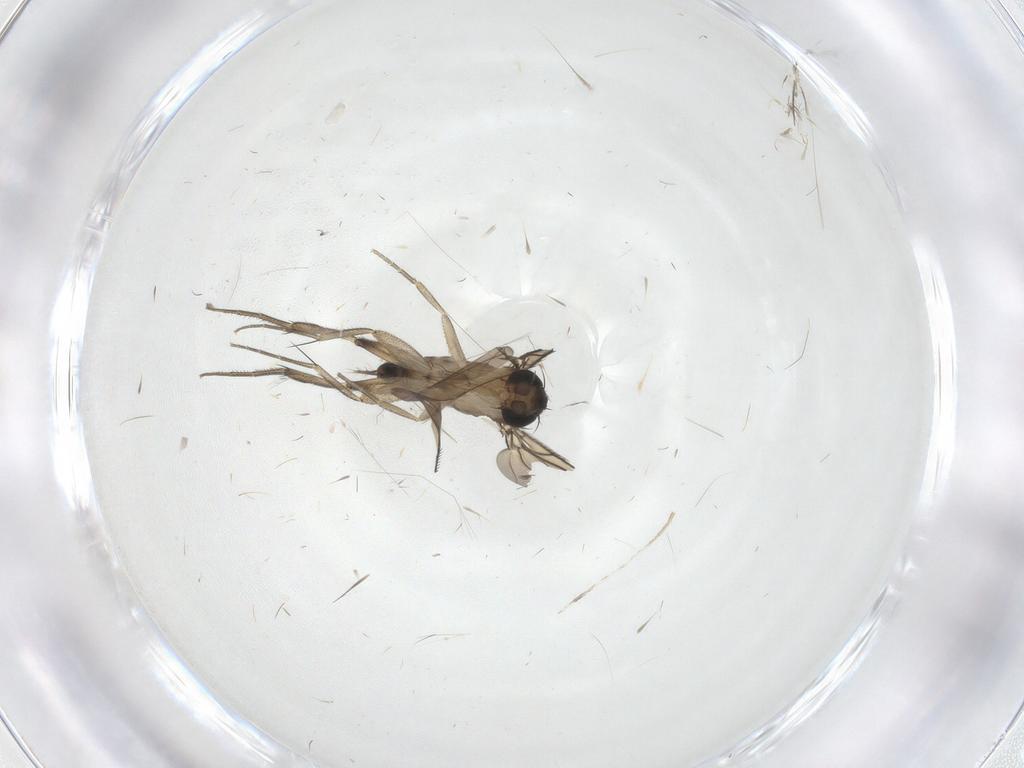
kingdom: Animalia
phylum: Arthropoda
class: Insecta
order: Diptera
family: Cecidomyiidae
